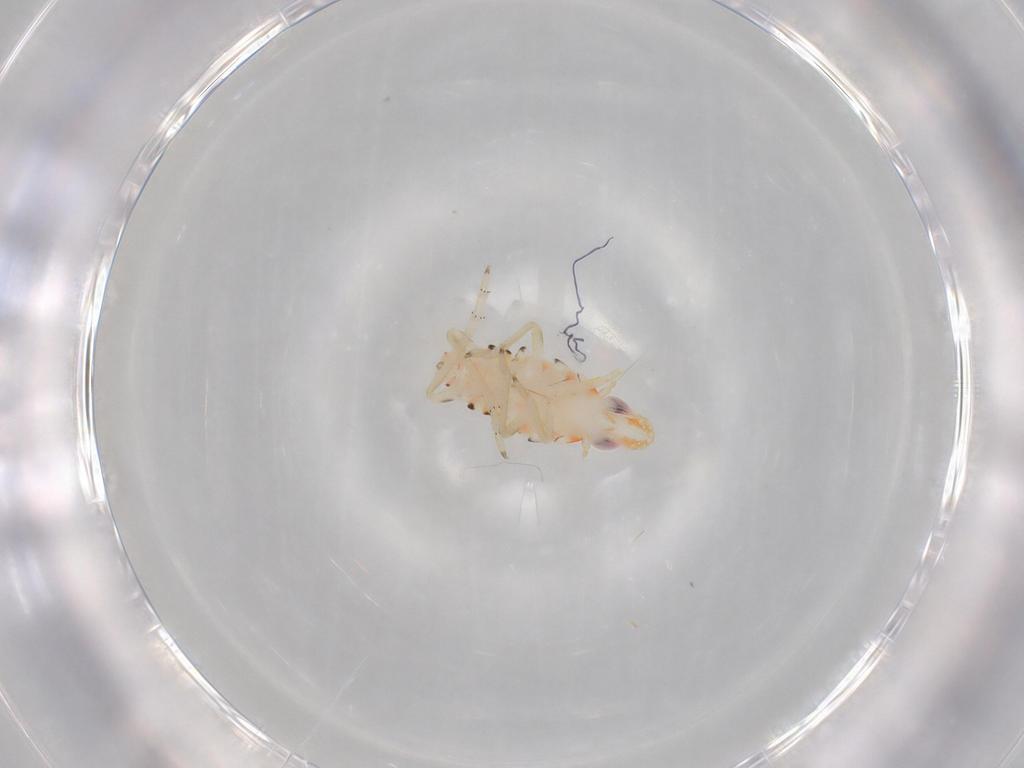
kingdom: Animalia
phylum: Arthropoda
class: Insecta
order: Hemiptera
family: Tropiduchidae
